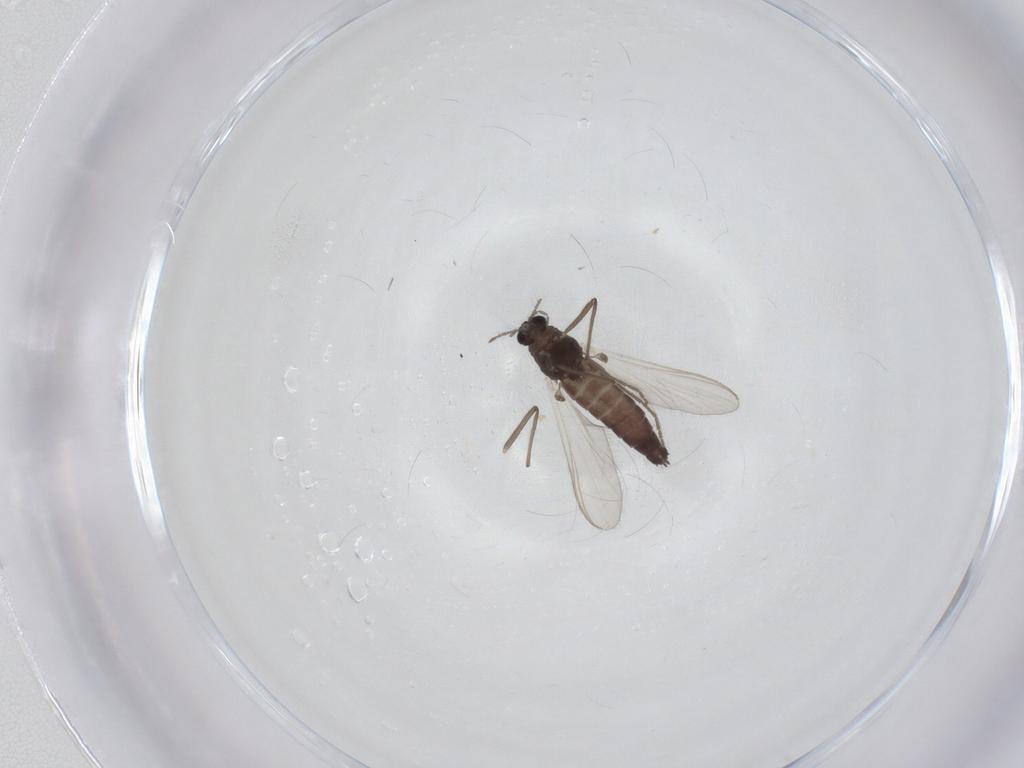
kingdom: Animalia
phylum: Arthropoda
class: Insecta
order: Diptera
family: Chironomidae
